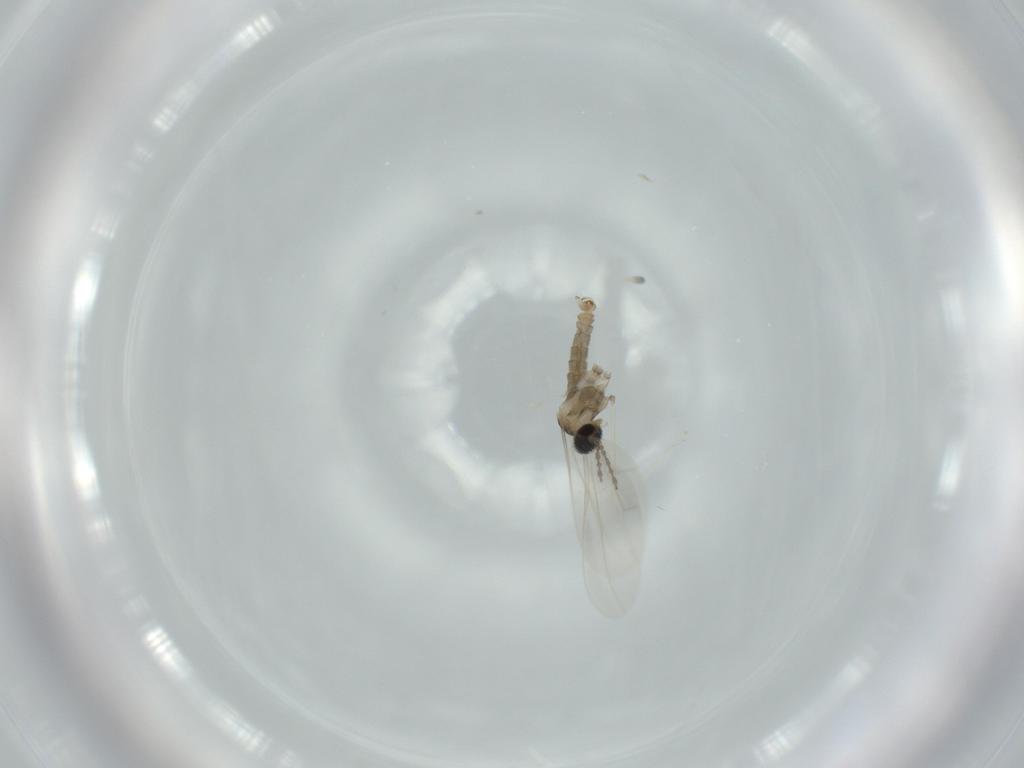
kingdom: Animalia
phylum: Arthropoda
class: Insecta
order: Diptera
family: Cecidomyiidae
